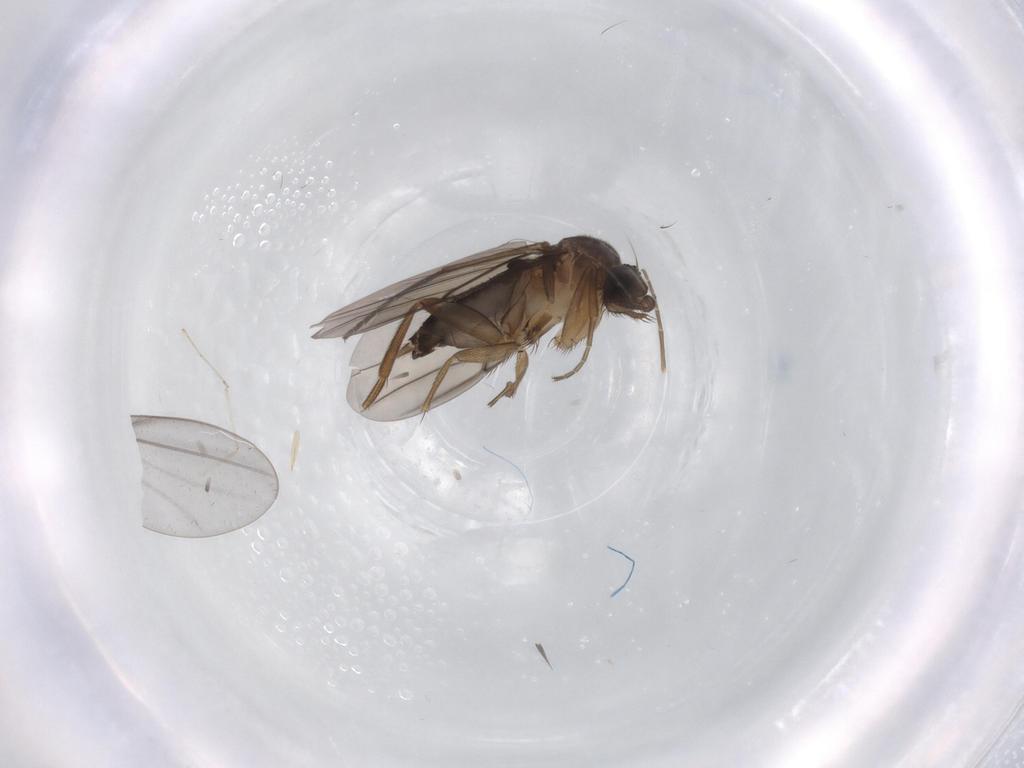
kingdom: Animalia
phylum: Arthropoda
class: Insecta
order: Diptera
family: Phoridae
